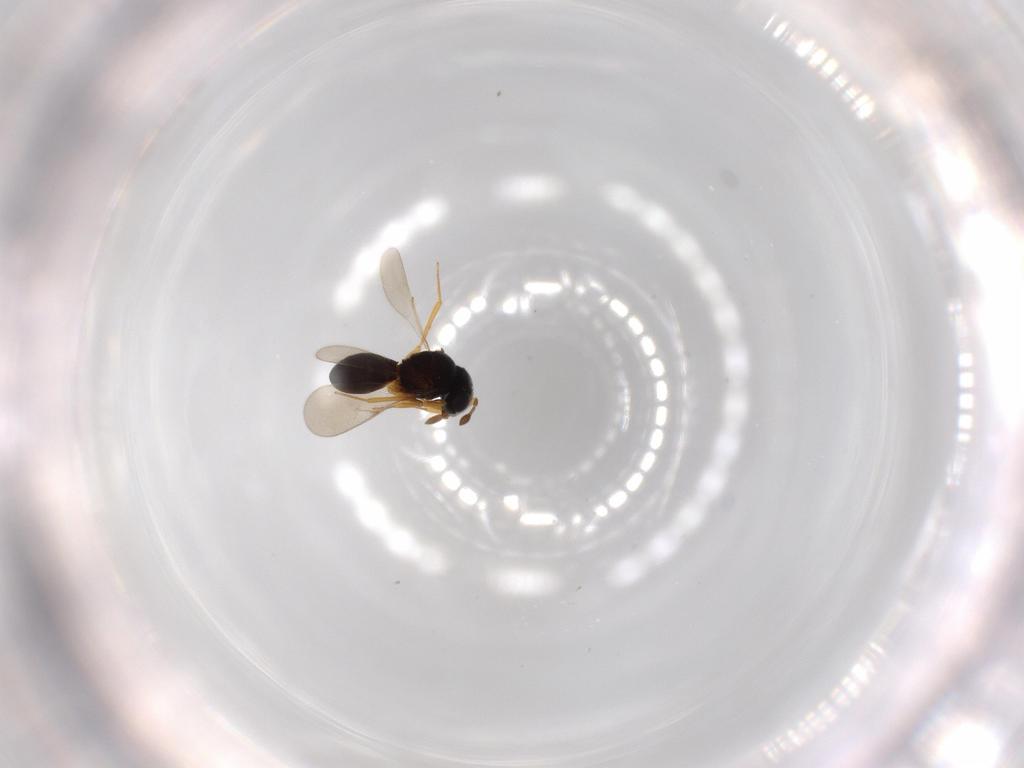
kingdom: Animalia
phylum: Arthropoda
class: Insecta
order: Hymenoptera
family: Scelionidae
